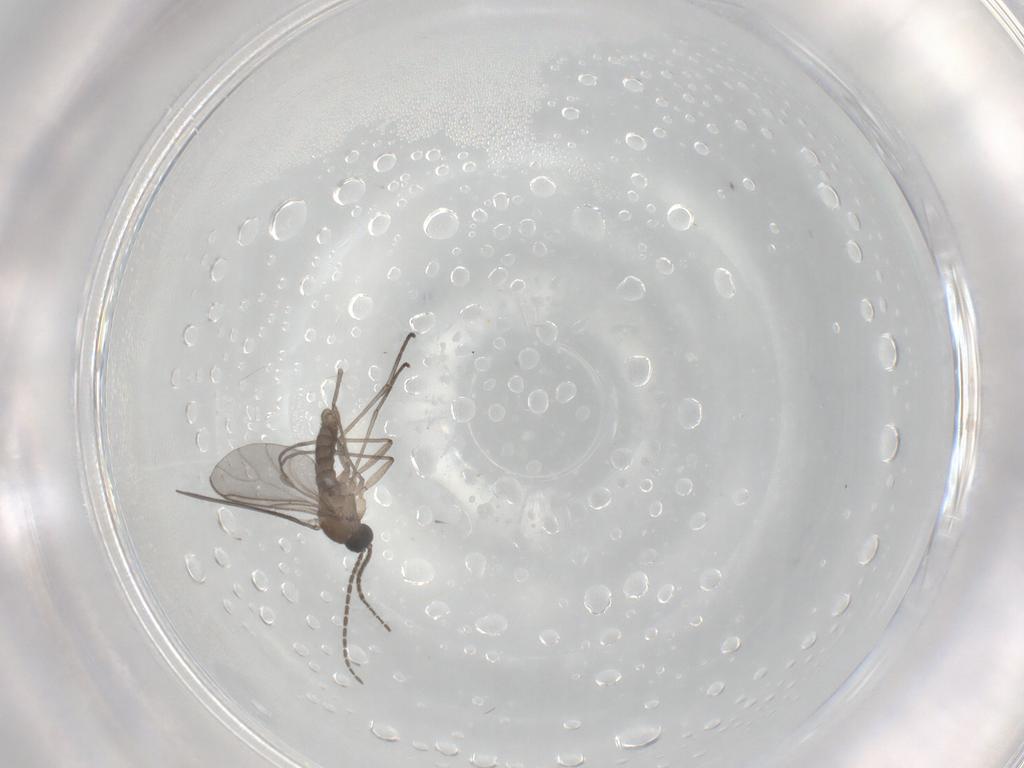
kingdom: Animalia
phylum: Arthropoda
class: Insecta
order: Diptera
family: Sciaridae
